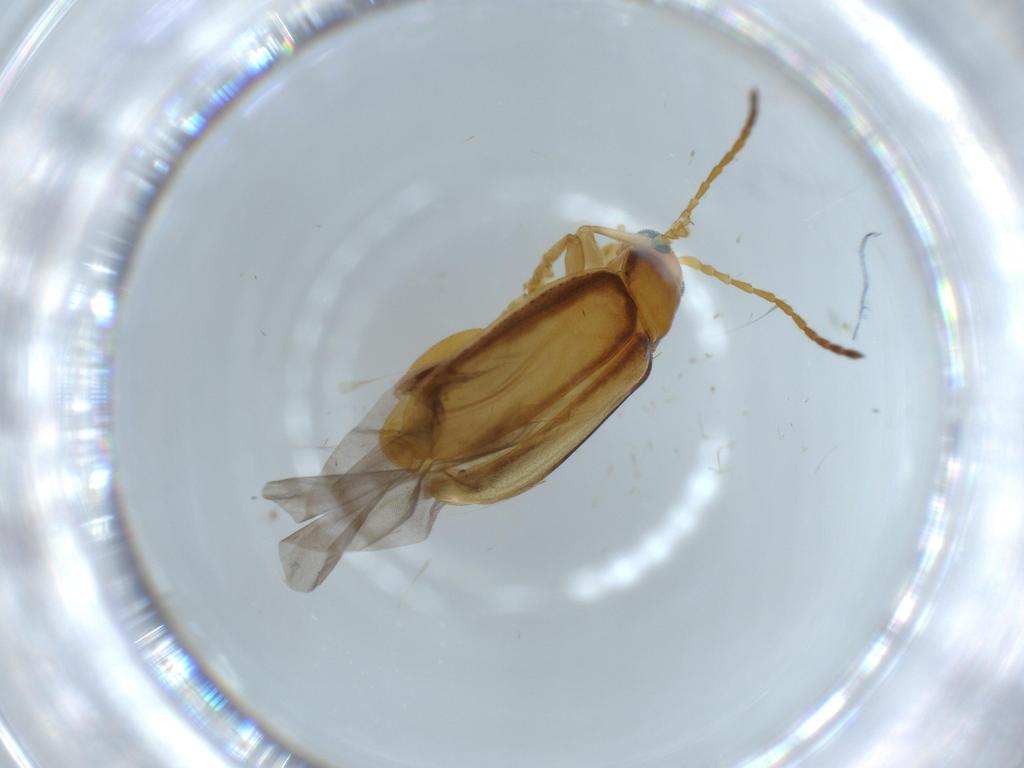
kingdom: Animalia
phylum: Arthropoda
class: Insecta
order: Coleoptera
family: Chrysomelidae
